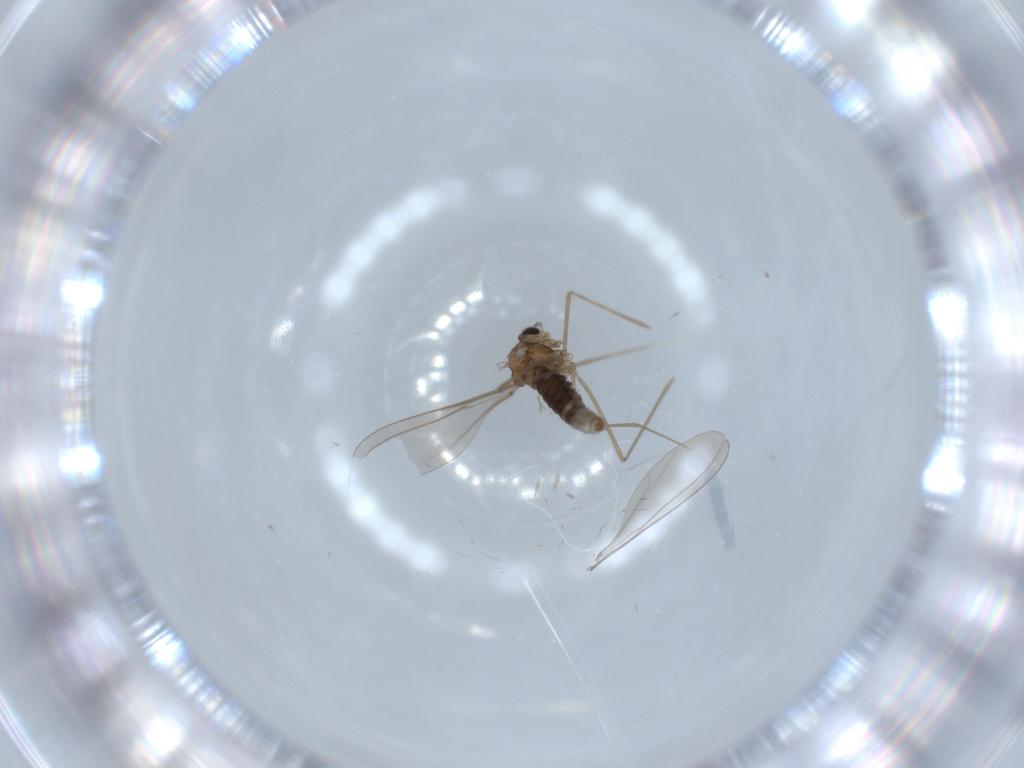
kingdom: Animalia
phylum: Arthropoda
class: Insecta
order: Diptera
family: Cecidomyiidae
